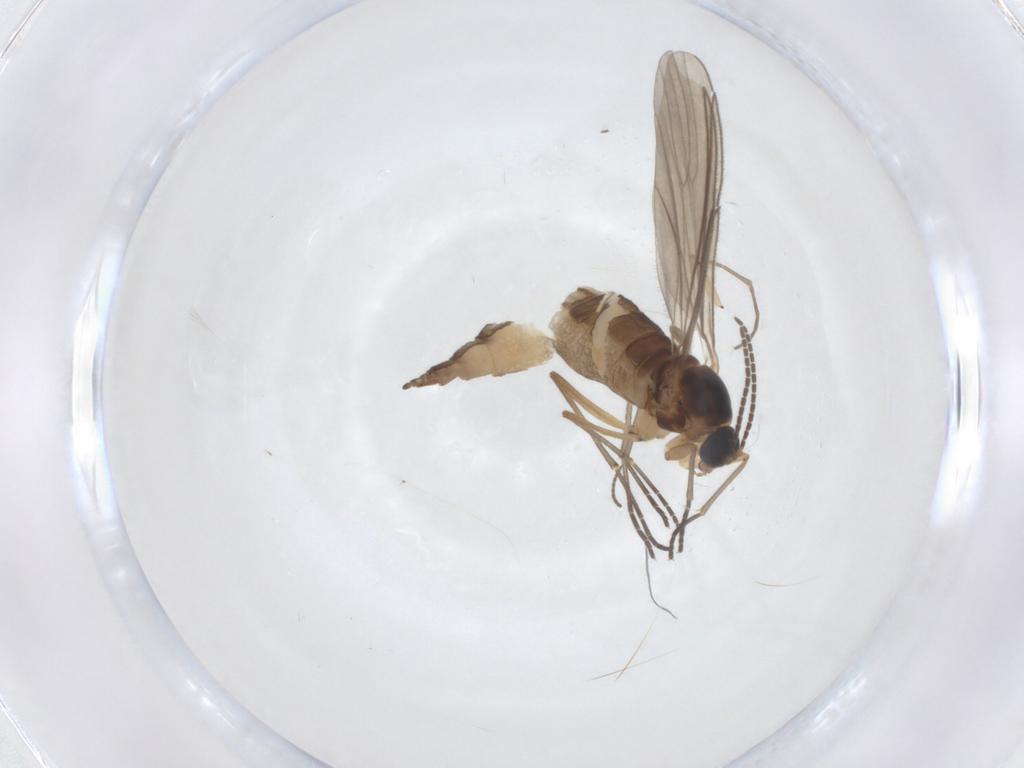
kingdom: Animalia
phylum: Arthropoda
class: Insecta
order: Diptera
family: Sciaridae
